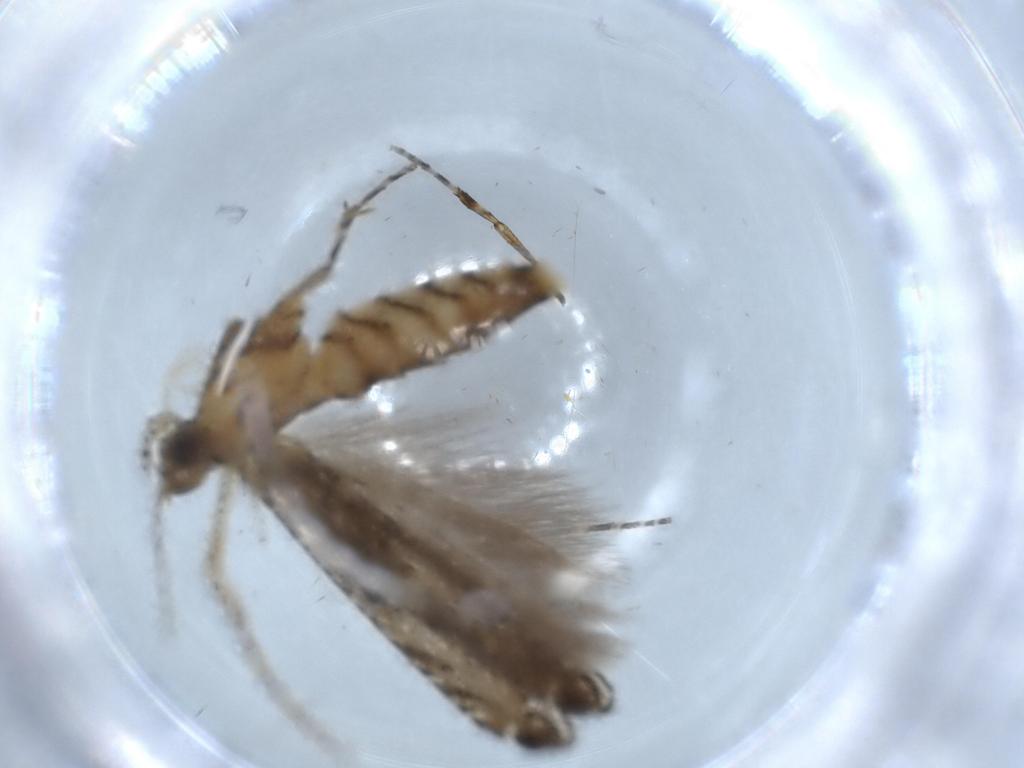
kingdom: Animalia
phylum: Arthropoda
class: Insecta
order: Lepidoptera
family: Gracillariidae
